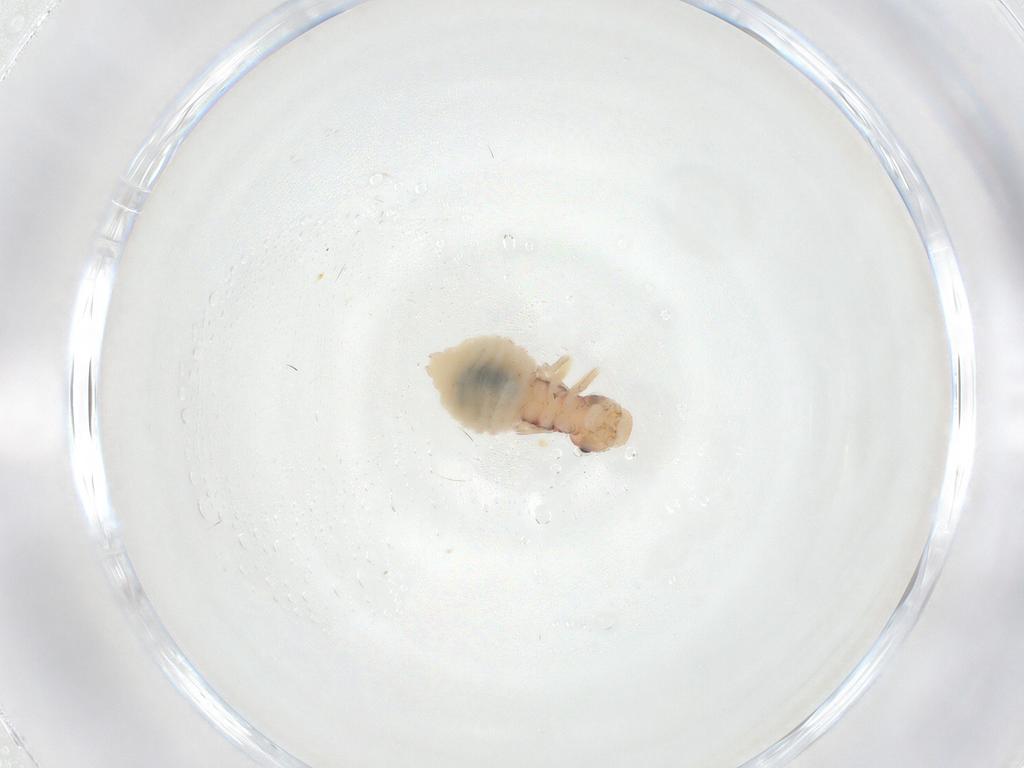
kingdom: Animalia
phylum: Arthropoda
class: Insecta
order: Psocodea
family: Amphipsocidae
